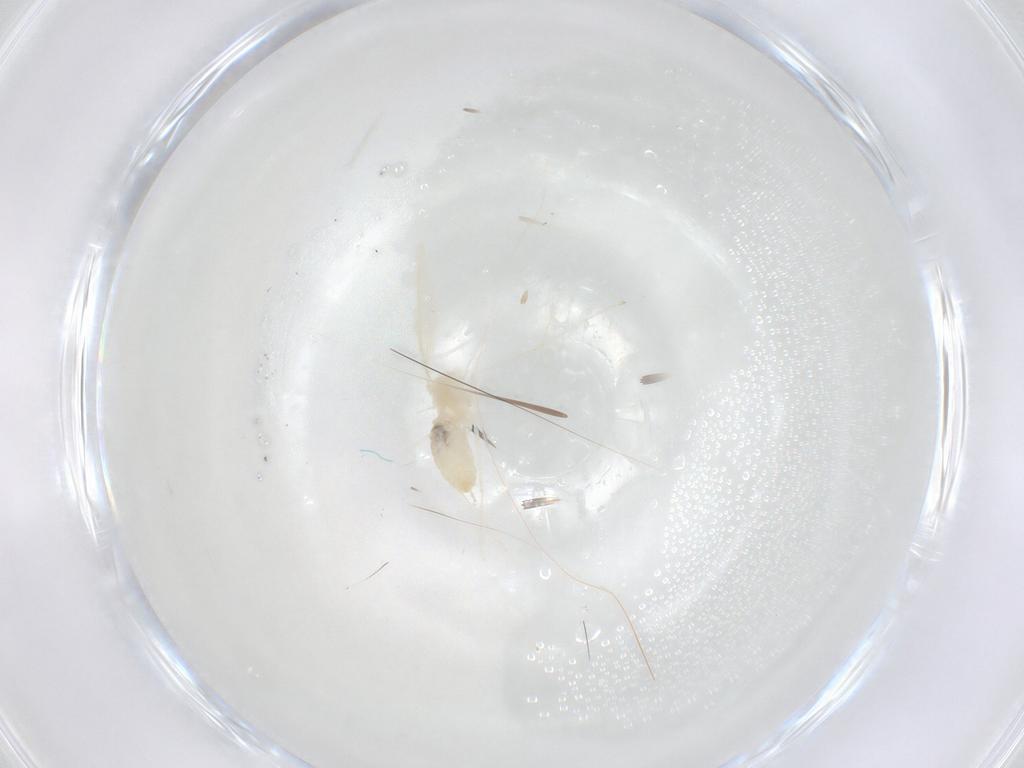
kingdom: Animalia
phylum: Arthropoda
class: Insecta
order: Diptera
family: Cecidomyiidae
